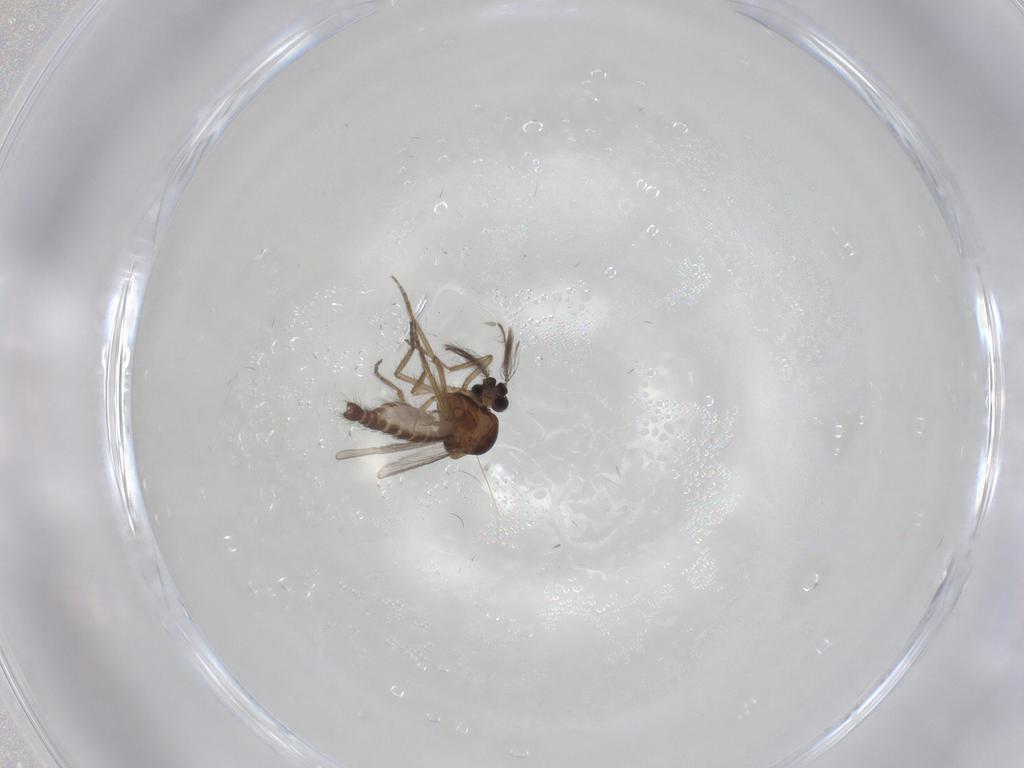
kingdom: Animalia
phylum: Arthropoda
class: Insecta
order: Diptera
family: Ceratopogonidae
